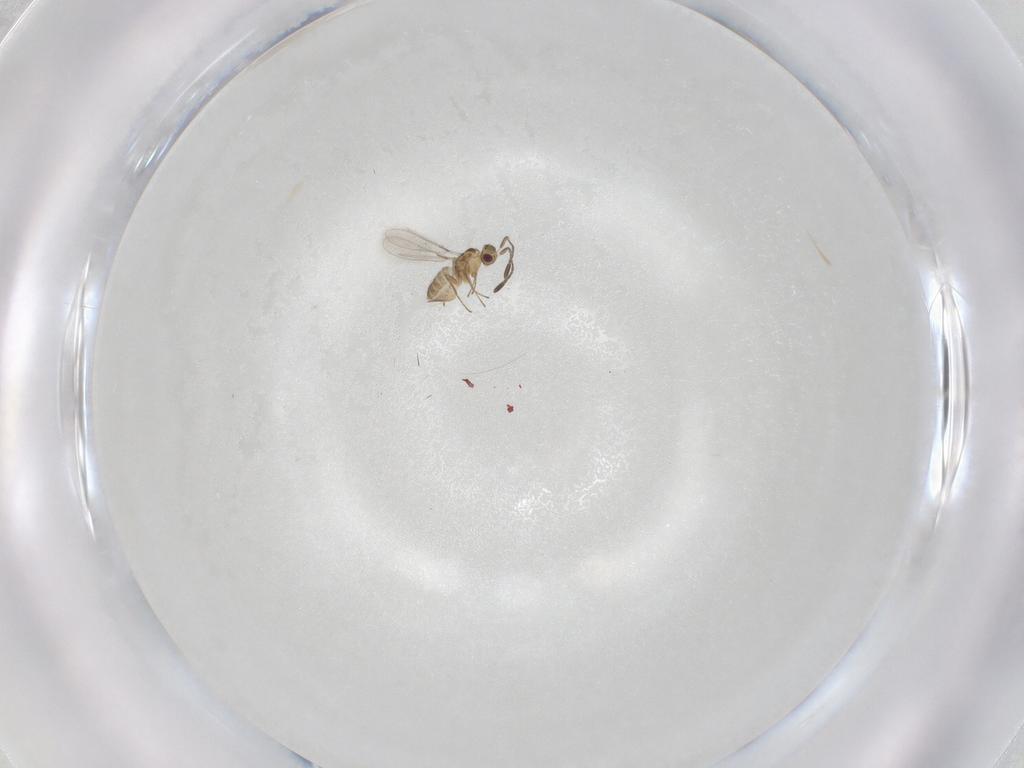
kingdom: Animalia
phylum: Arthropoda
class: Insecta
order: Hymenoptera
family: Mymaridae
